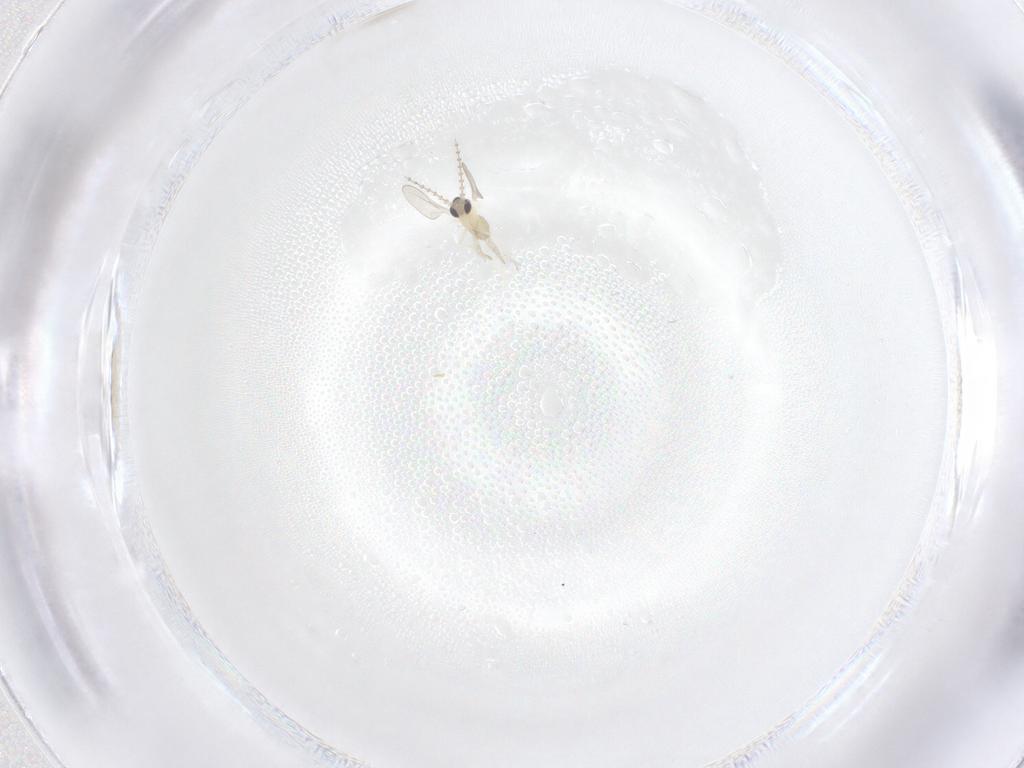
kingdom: Animalia
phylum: Arthropoda
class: Insecta
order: Diptera
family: Cecidomyiidae
